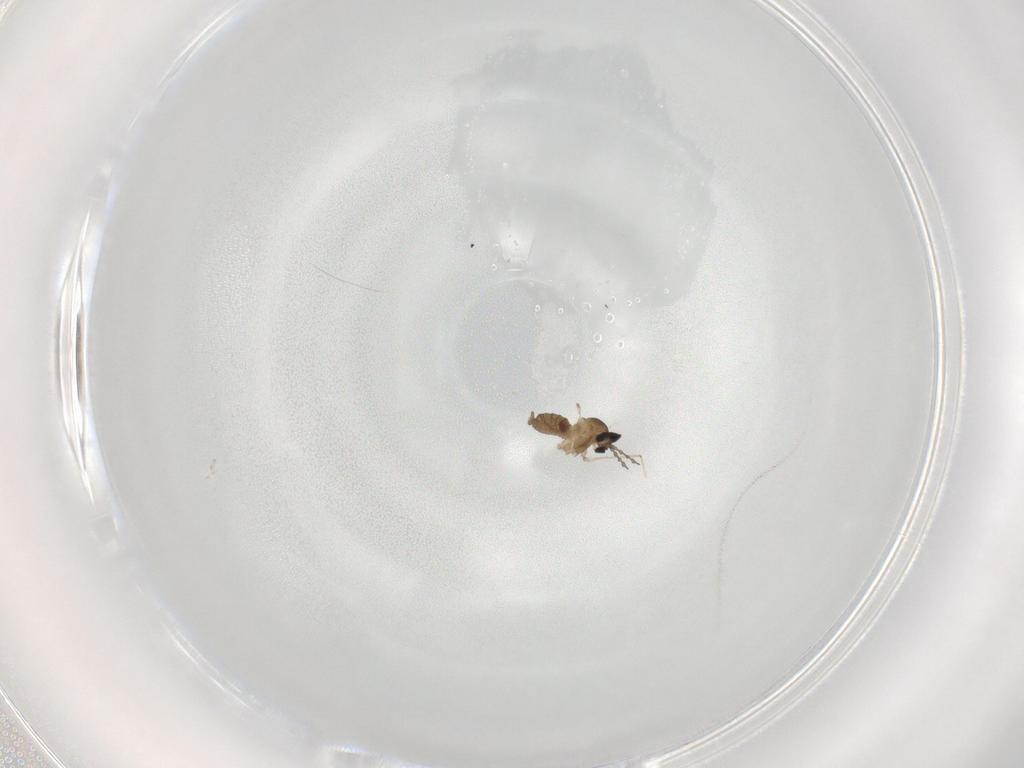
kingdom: Animalia
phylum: Arthropoda
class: Insecta
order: Diptera
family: Cecidomyiidae
